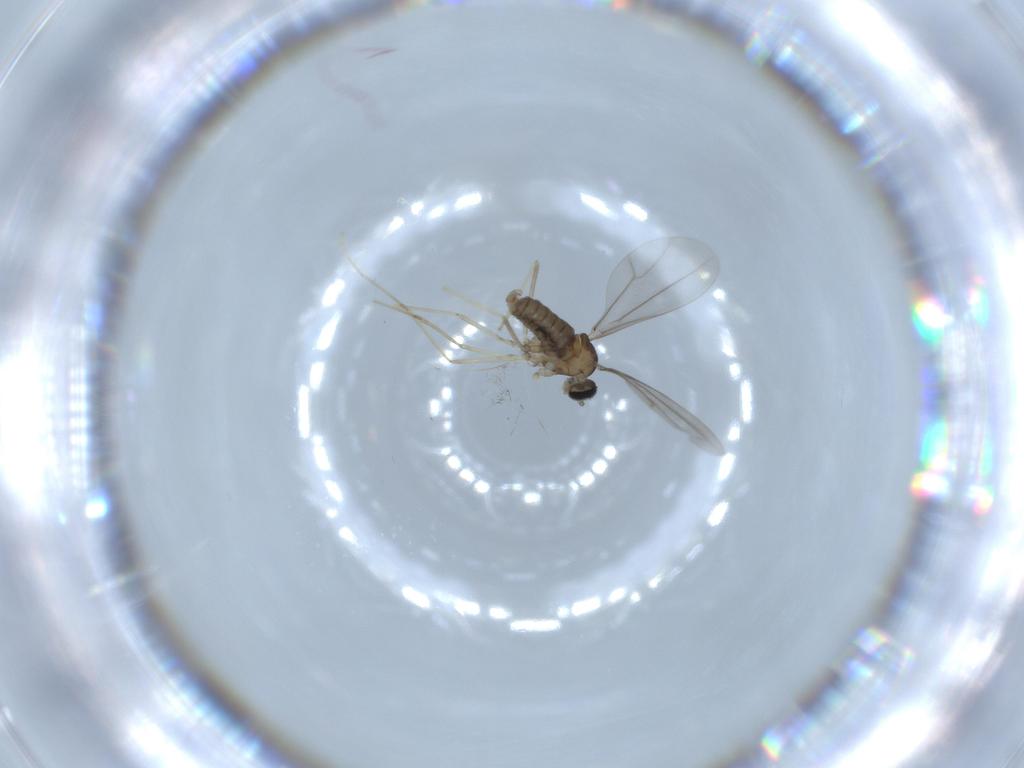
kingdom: Animalia
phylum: Arthropoda
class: Insecta
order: Diptera
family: Cecidomyiidae
